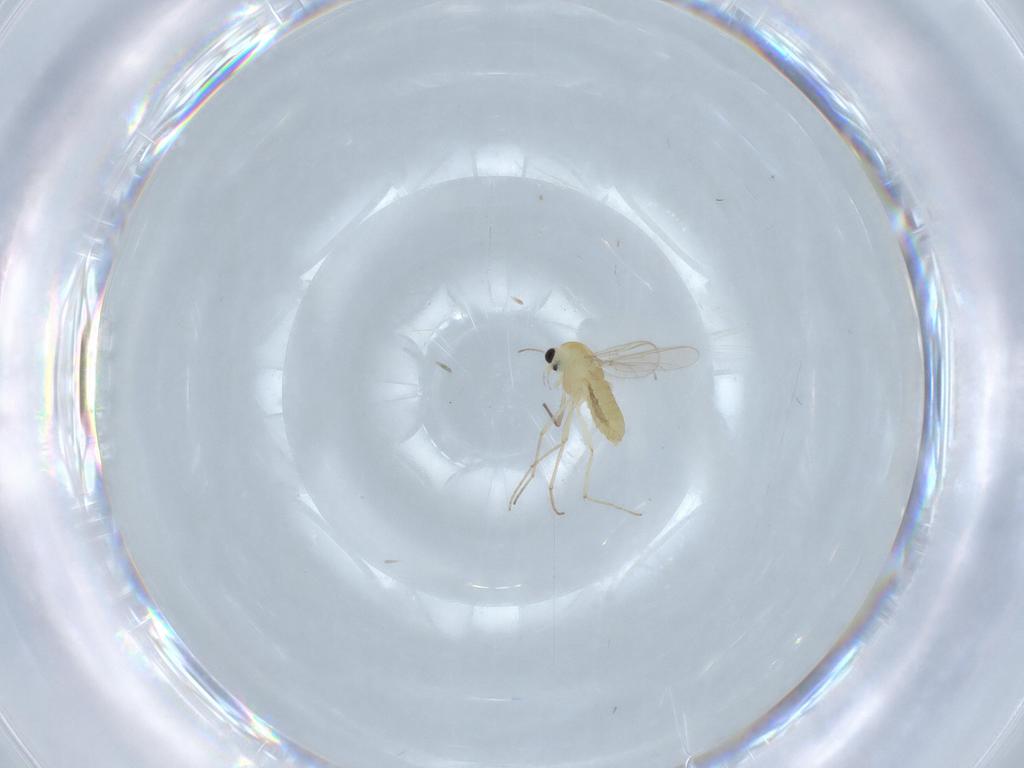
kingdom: Animalia
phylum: Arthropoda
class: Insecta
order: Diptera
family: Chironomidae
